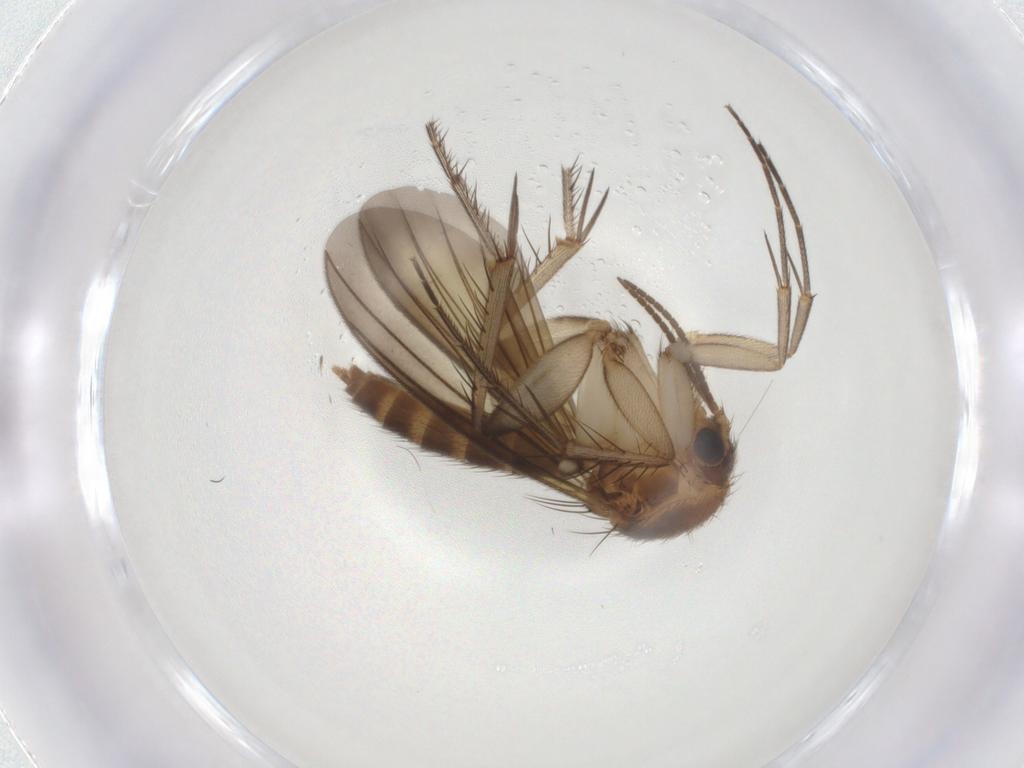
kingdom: Animalia
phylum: Arthropoda
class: Insecta
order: Diptera
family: Mycetophilidae
